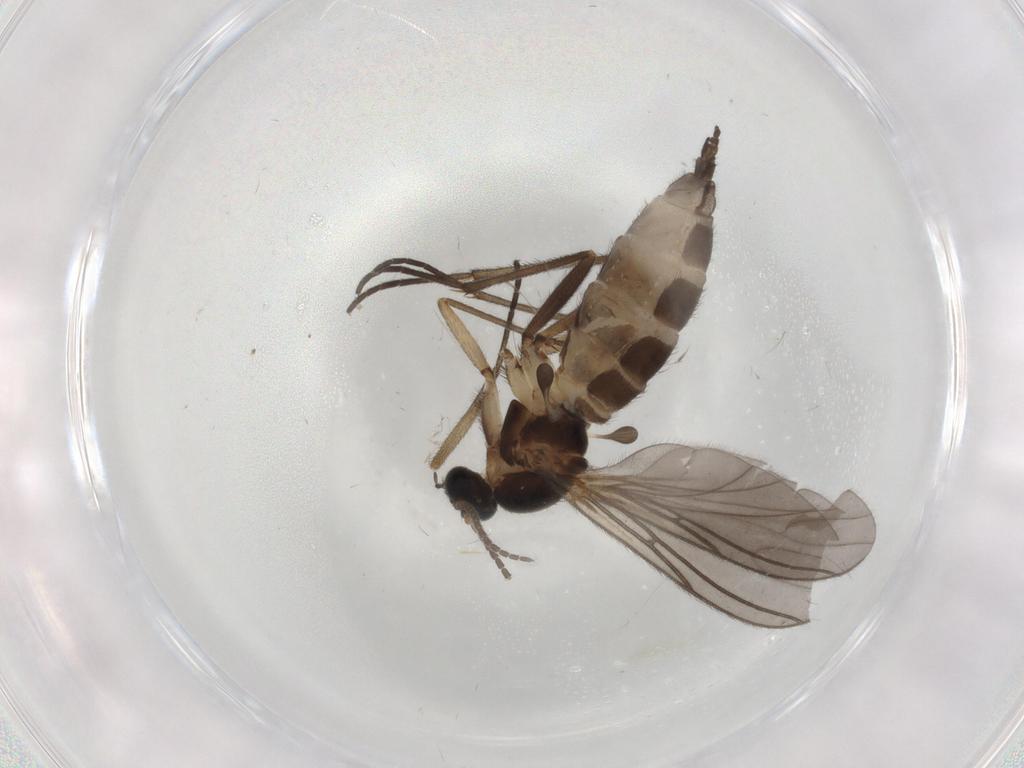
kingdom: Animalia
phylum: Arthropoda
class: Insecta
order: Diptera
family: Sciaridae
